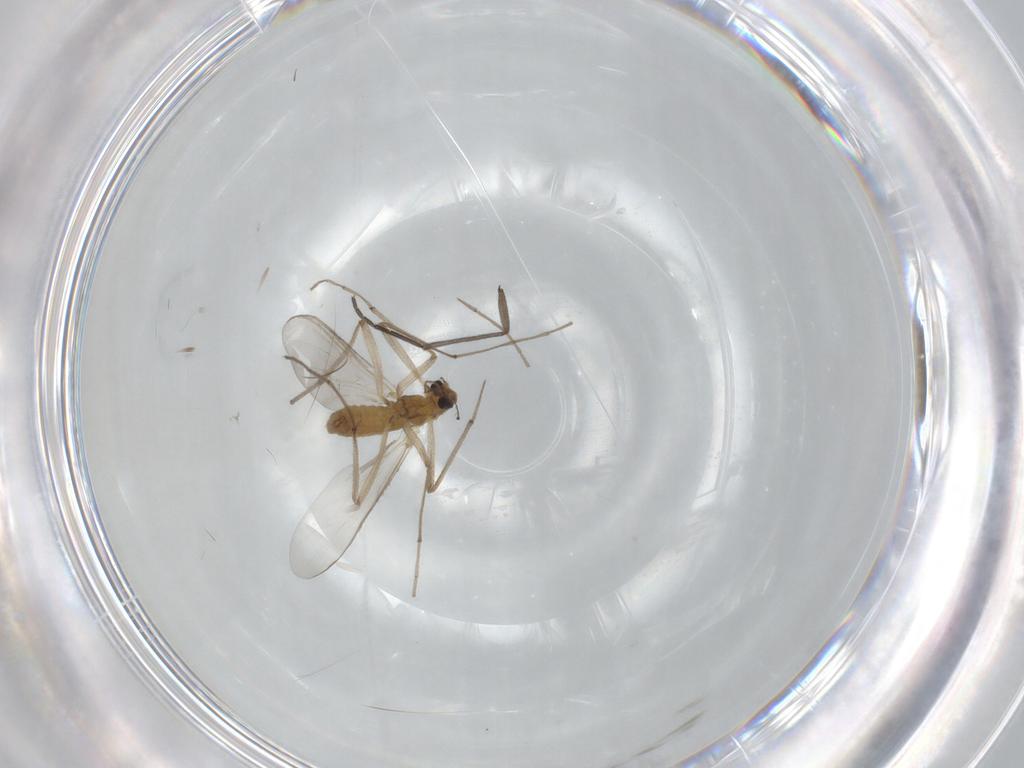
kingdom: Animalia
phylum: Arthropoda
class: Insecta
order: Diptera
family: Chironomidae
